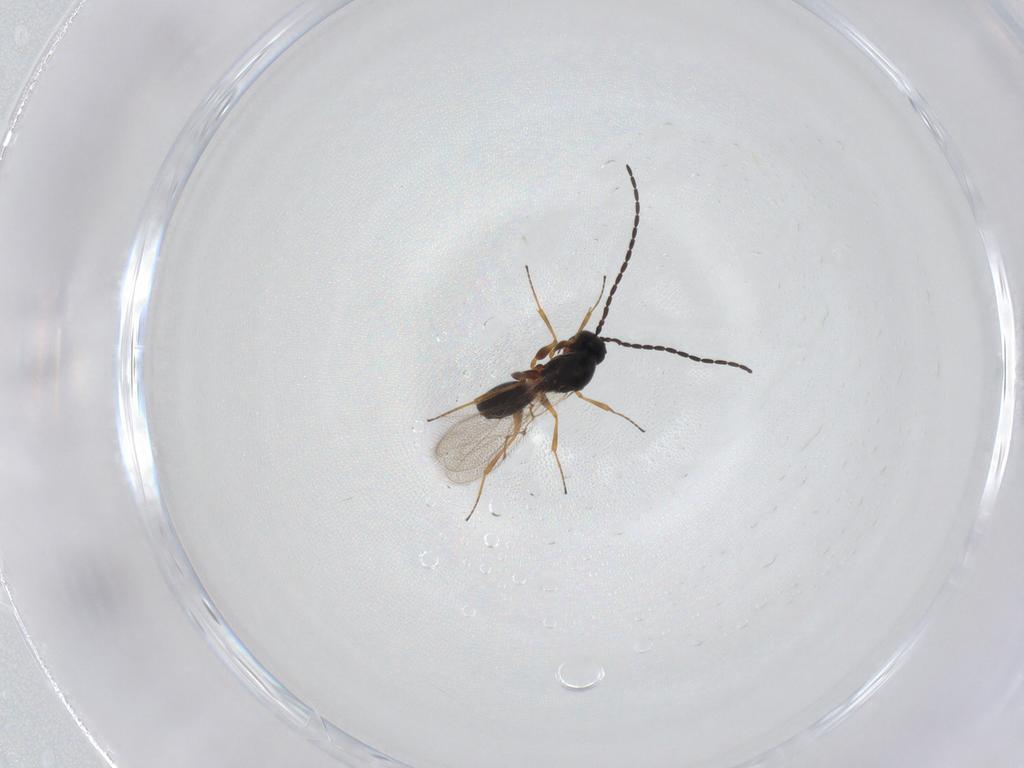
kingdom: Animalia
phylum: Arthropoda
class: Insecta
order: Hymenoptera
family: Figitidae
